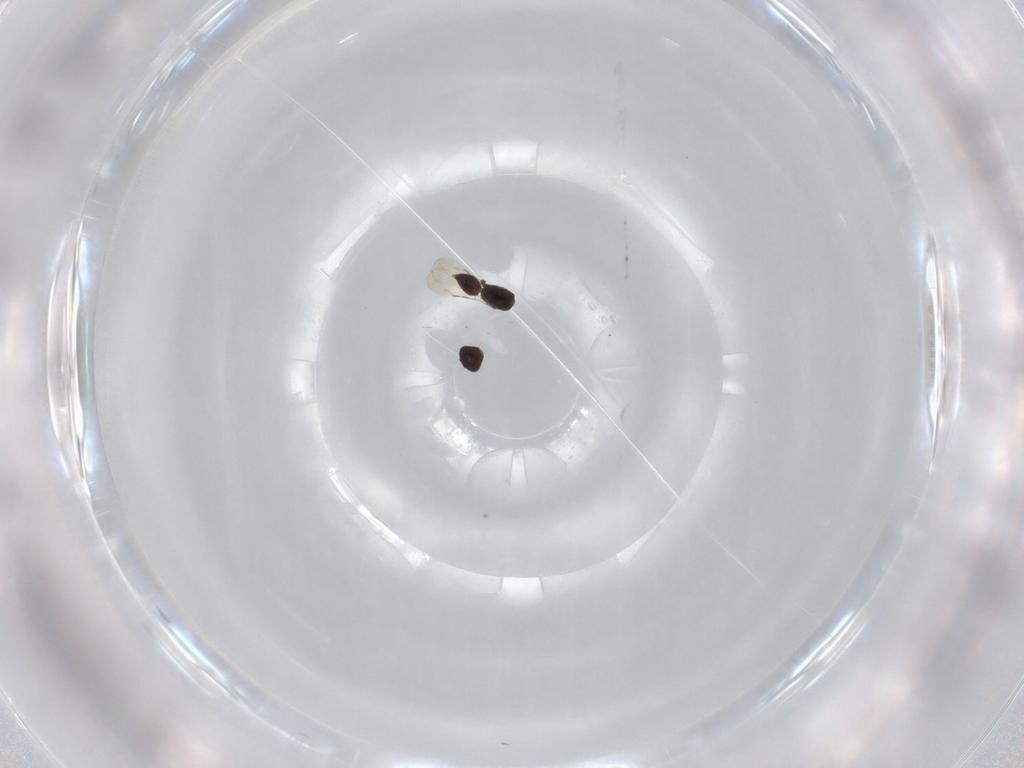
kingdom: Animalia
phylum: Arthropoda
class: Insecta
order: Hymenoptera
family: Ceraphronidae
